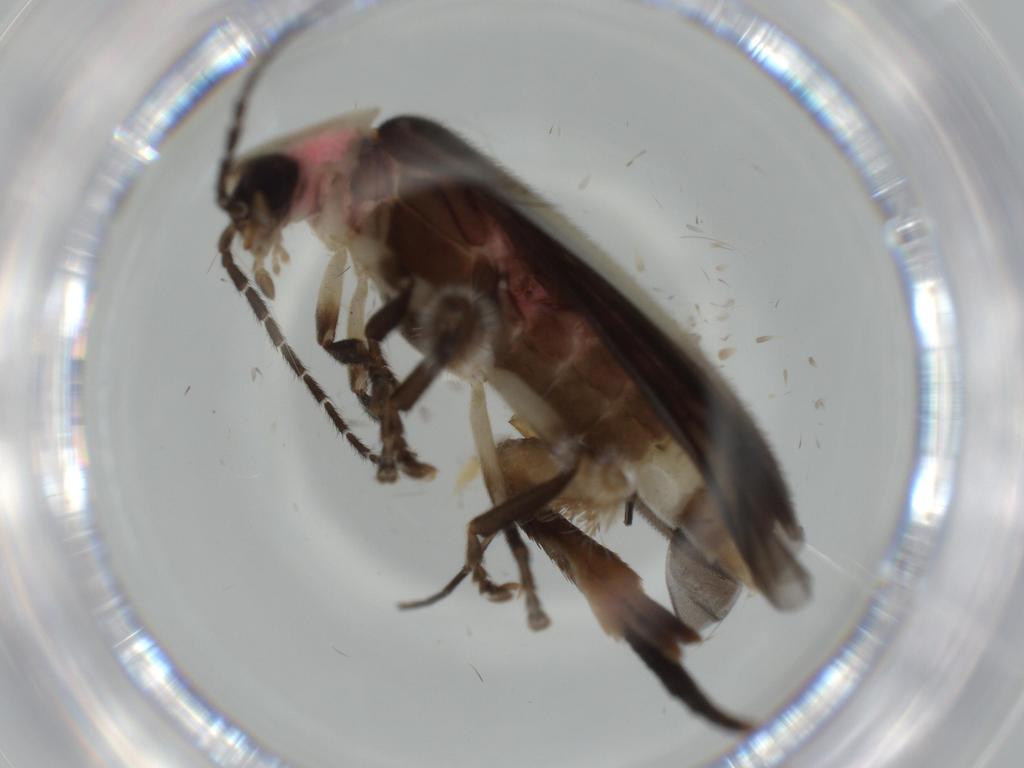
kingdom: Animalia
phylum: Arthropoda
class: Insecta
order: Coleoptera
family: Lampyridae
